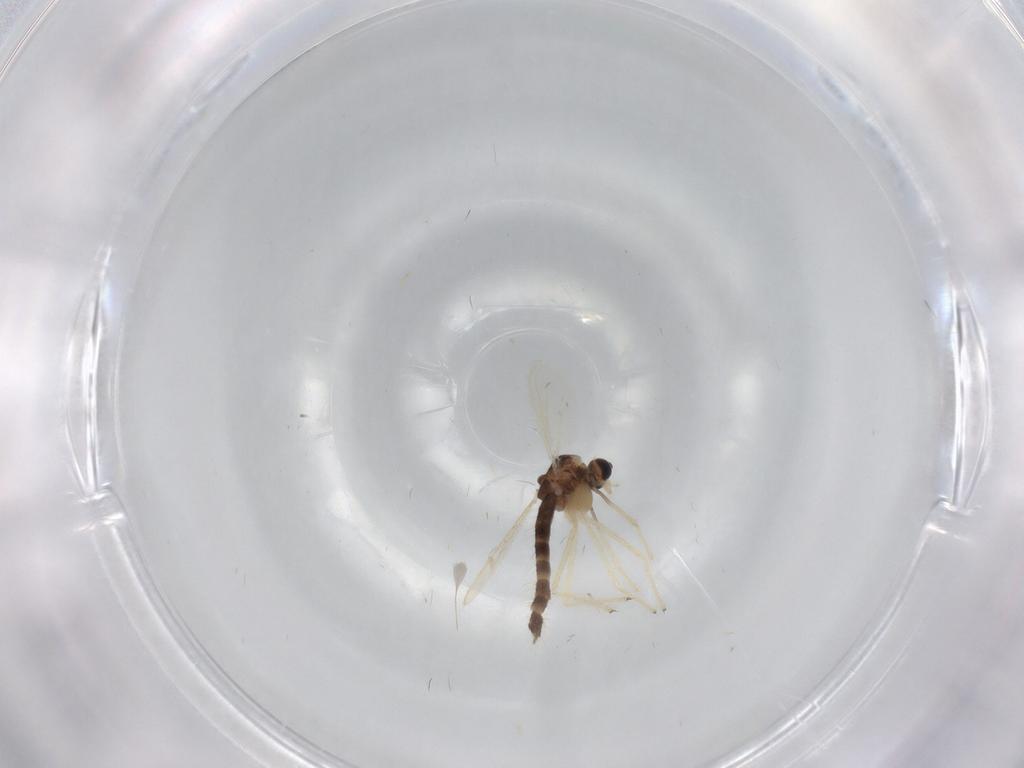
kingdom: Animalia
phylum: Arthropoda
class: Insecta
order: Diptera
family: Chironomidae
